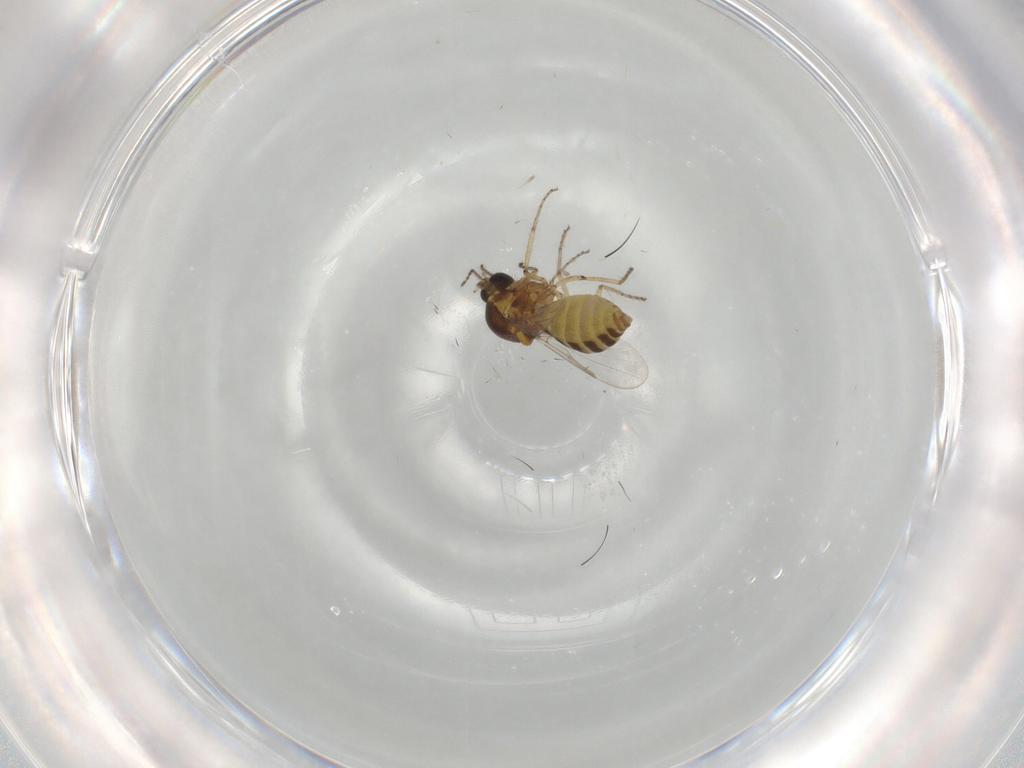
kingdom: Animalia
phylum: Arthropoda
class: Insecta
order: Diptera
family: Ceratopogonidae
